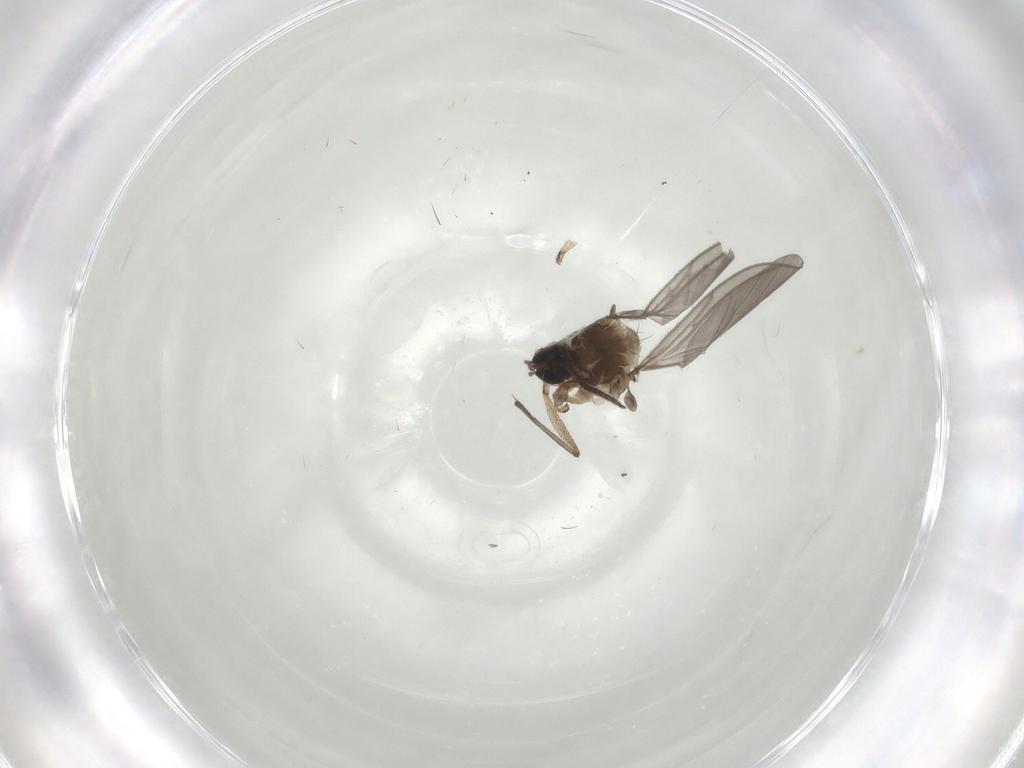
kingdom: Animalia
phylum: Arthropoda
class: Insecta
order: Diptera
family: Sciaridae
